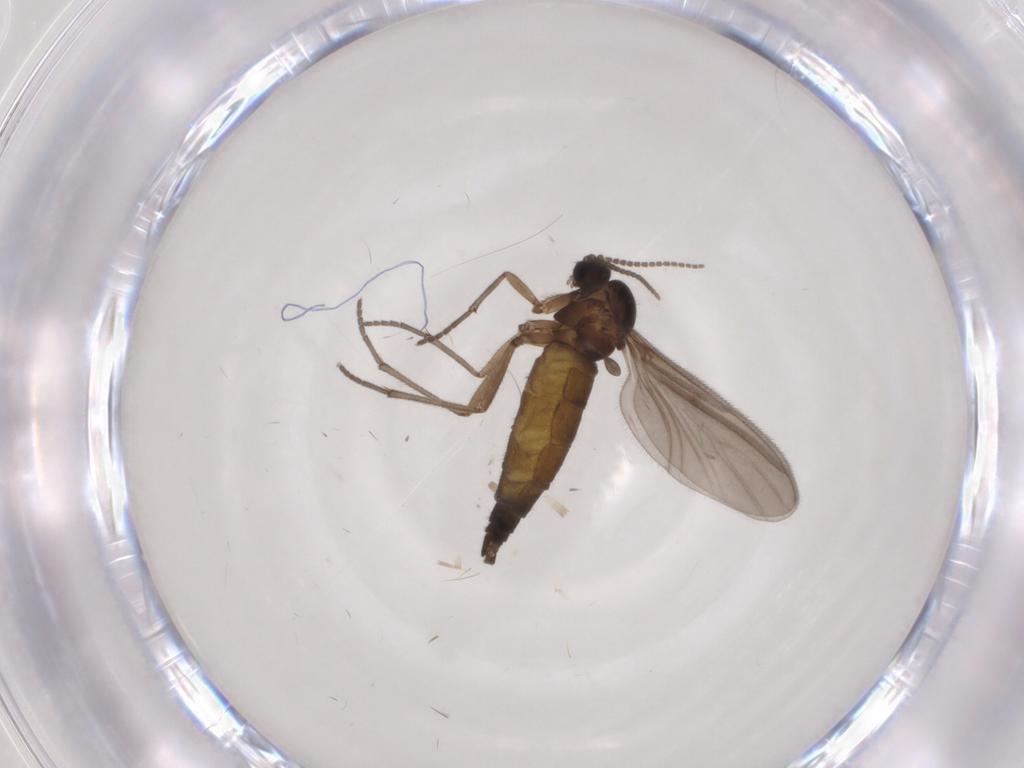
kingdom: Animalia
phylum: Arthropoda
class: Insecta
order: Diptera
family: Sciaridae
